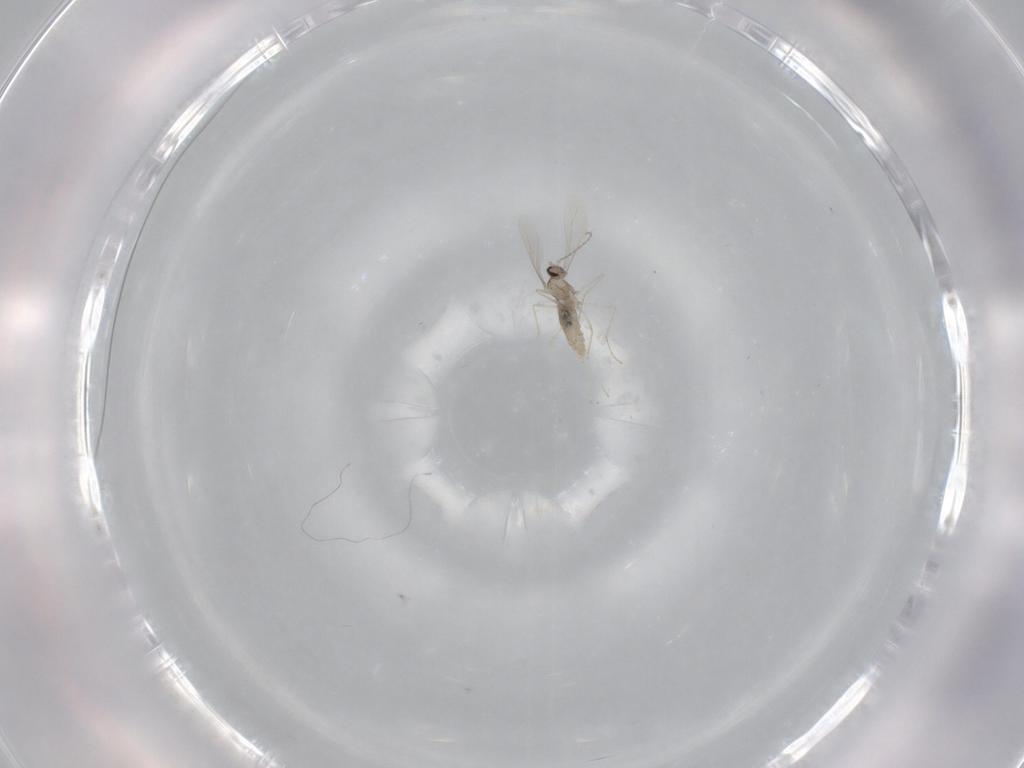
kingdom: Animalia
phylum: Arthropoda
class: Insecta
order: Diptera
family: Cecidomyiidae
